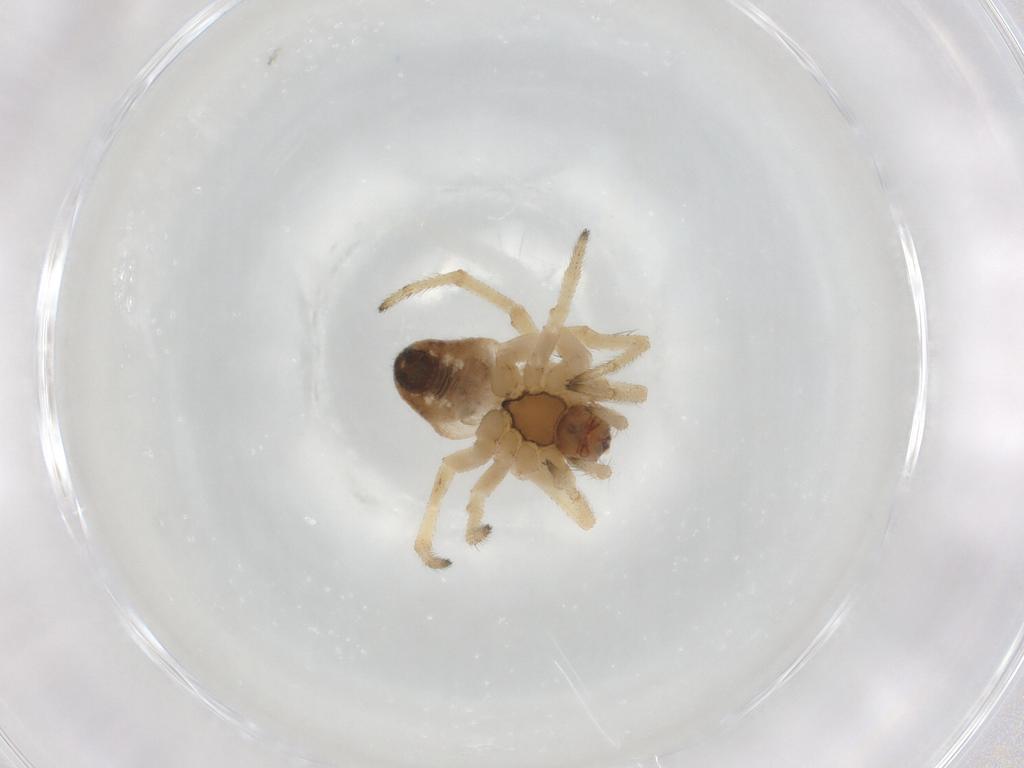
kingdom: Animalia
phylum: Arthropoda
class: Arachnida
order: Araneae
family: Araneidae
